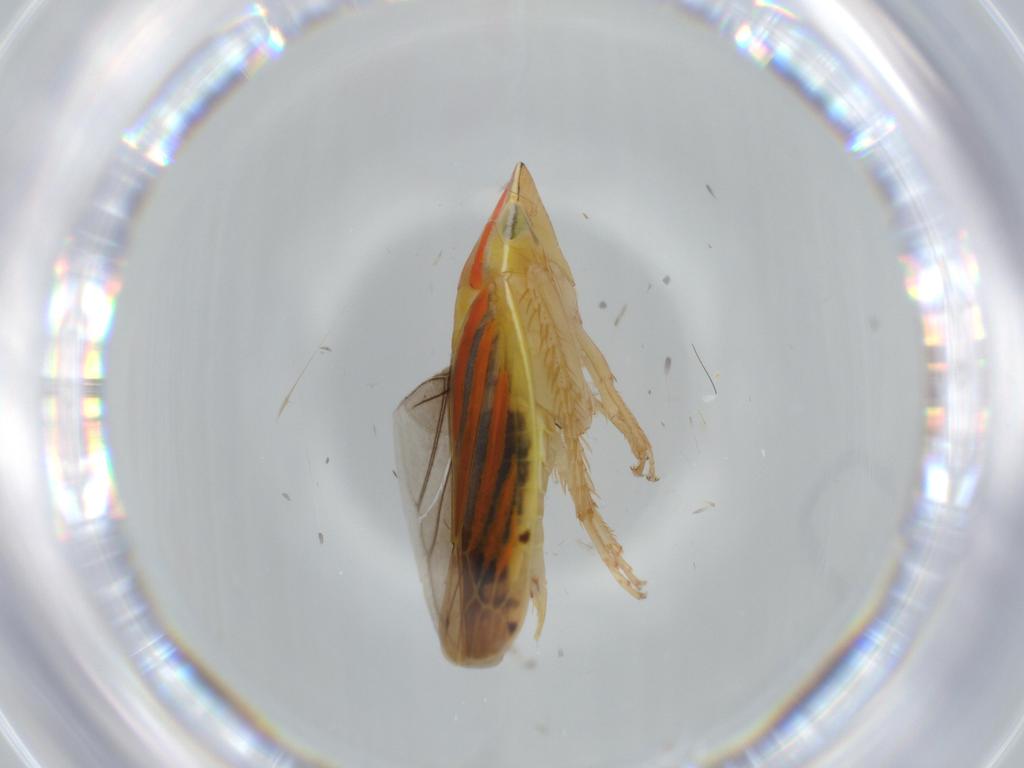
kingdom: Animalia
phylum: Arthropoda
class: Insecta
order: Hemiptera
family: Cicadellidae
